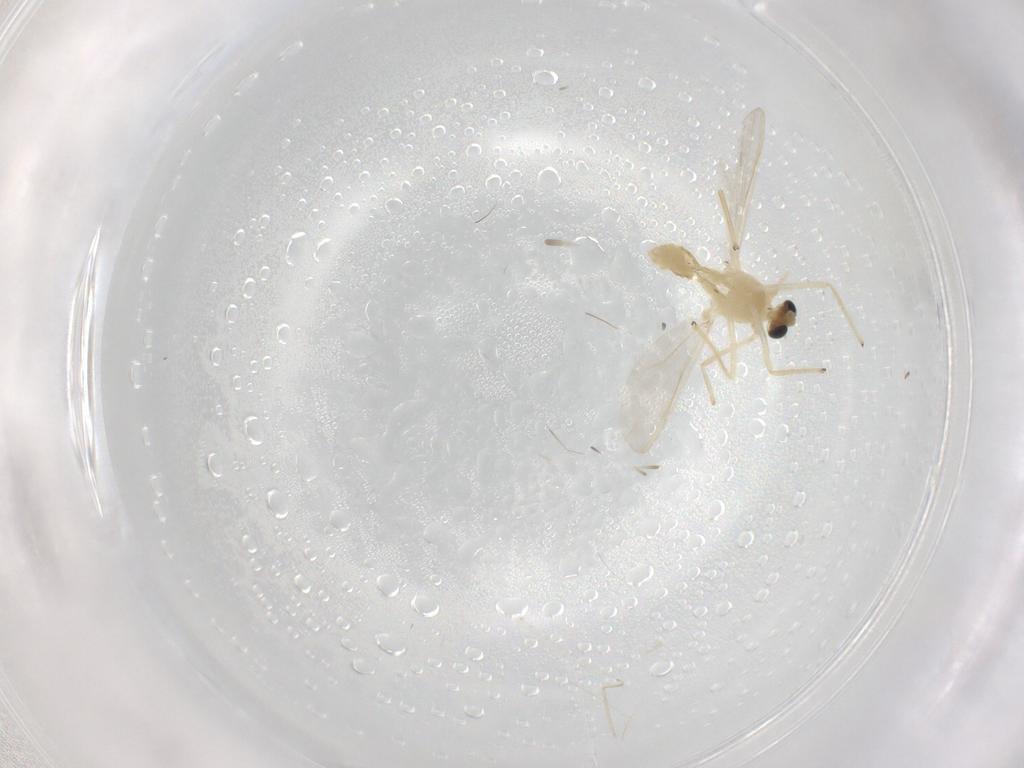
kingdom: Animalia
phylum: Arthropoda
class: Insecta
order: Diptera
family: Cecidomyiidae
